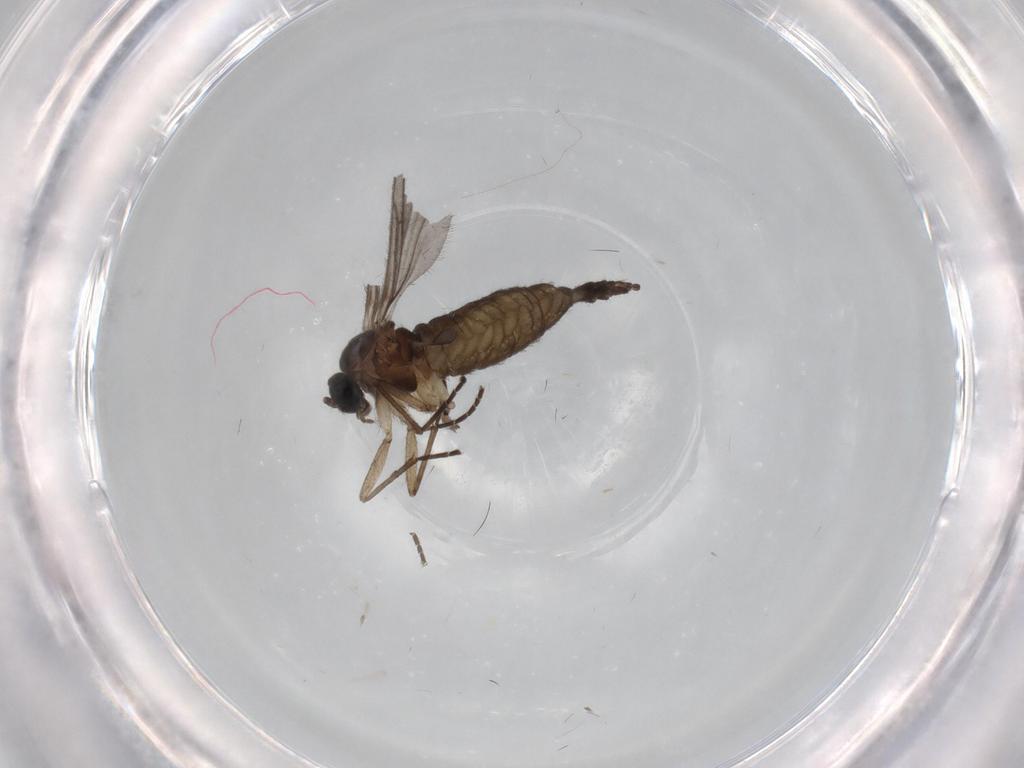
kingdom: Animalia
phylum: Arthropoda
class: Insecta
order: Diptera
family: Sciaridae
